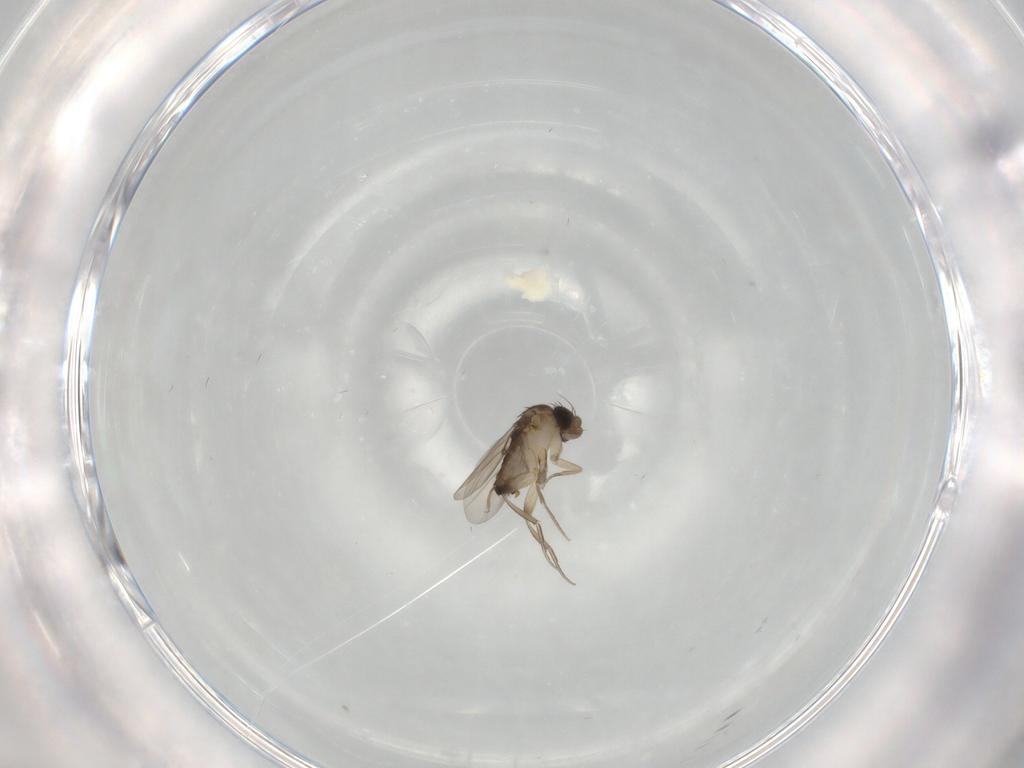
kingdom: Animalia
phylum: Arthropoda
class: Insecta
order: Diptera
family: Phoridae
